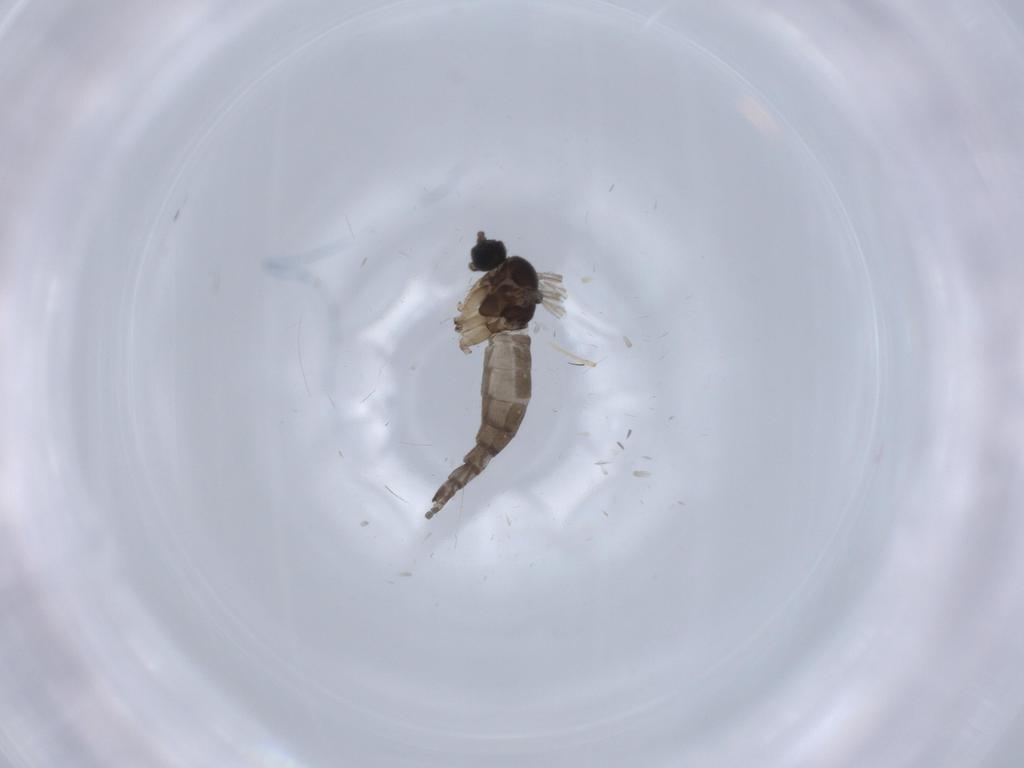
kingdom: Animalia
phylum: Arthropoda
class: Insecta
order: Diptera
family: Sciaridae
